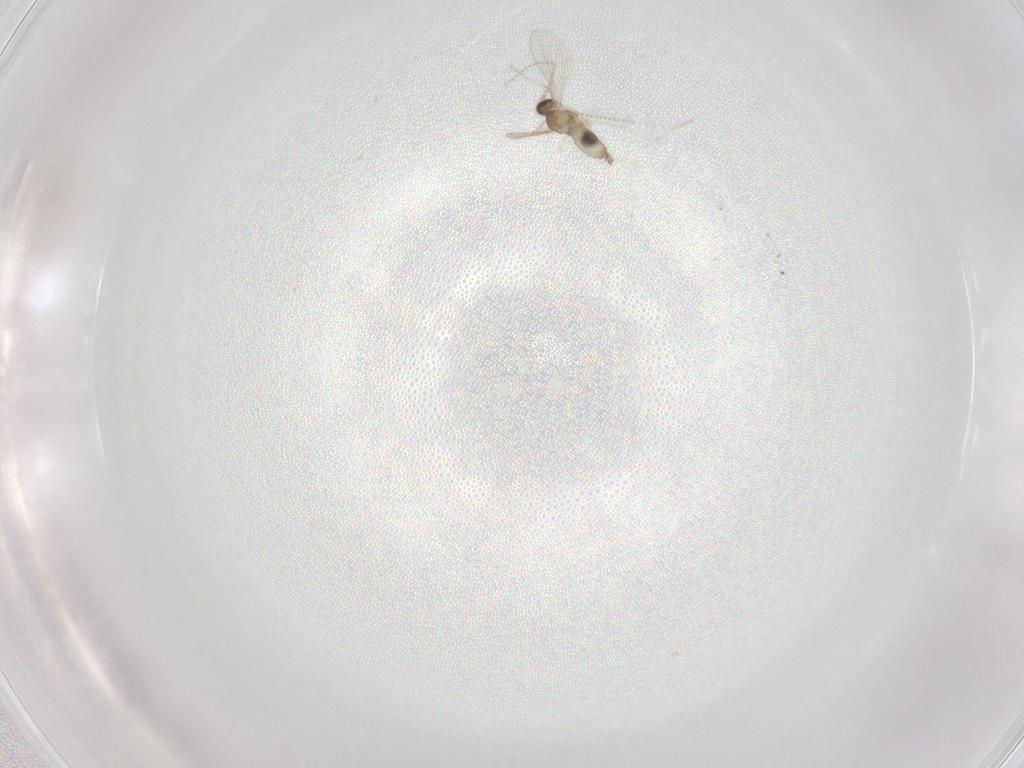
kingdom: Animalia
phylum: Arthropoda
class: Insecta
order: Diptera
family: Cecidomyiidae
